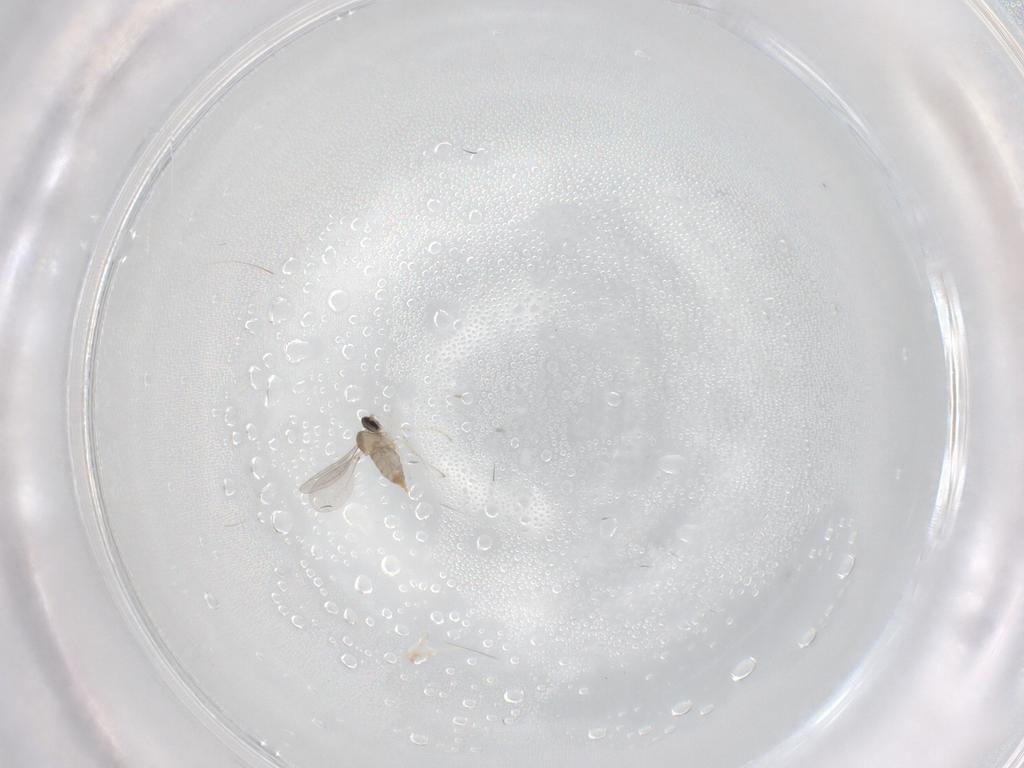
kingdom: Animalia
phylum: Arthropoda
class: Insecta
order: Diptera
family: Cecidomyiidae
